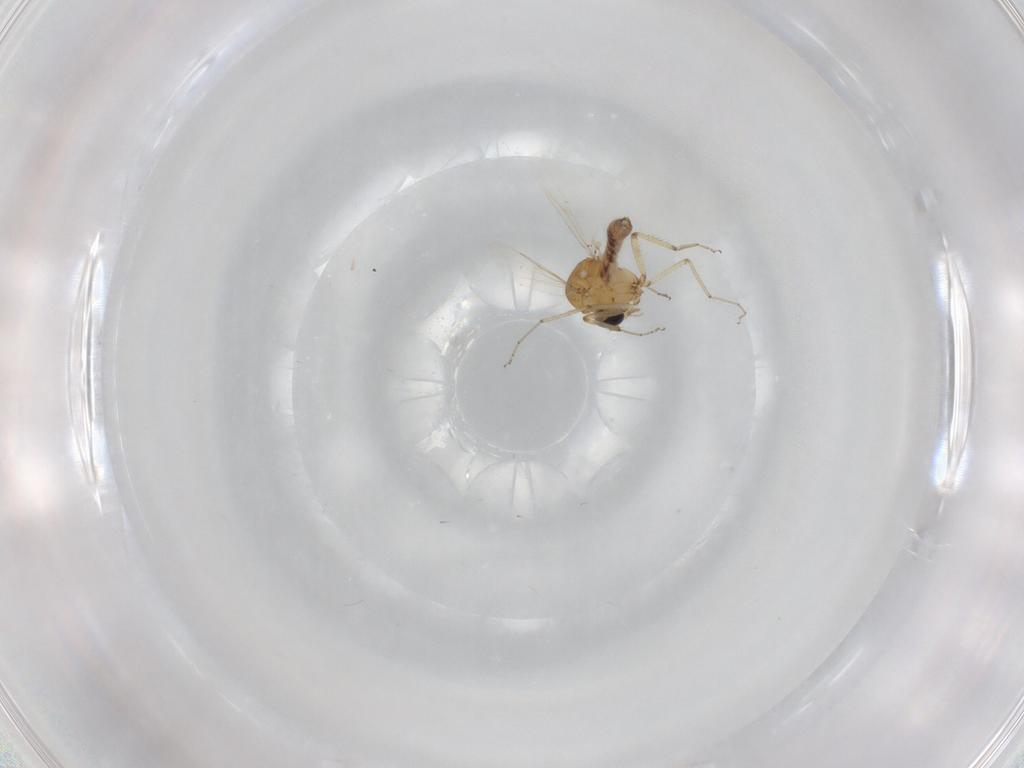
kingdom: Animalia
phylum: Arthropoda
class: Insecta
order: Diptera
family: Ceratopogonidae
